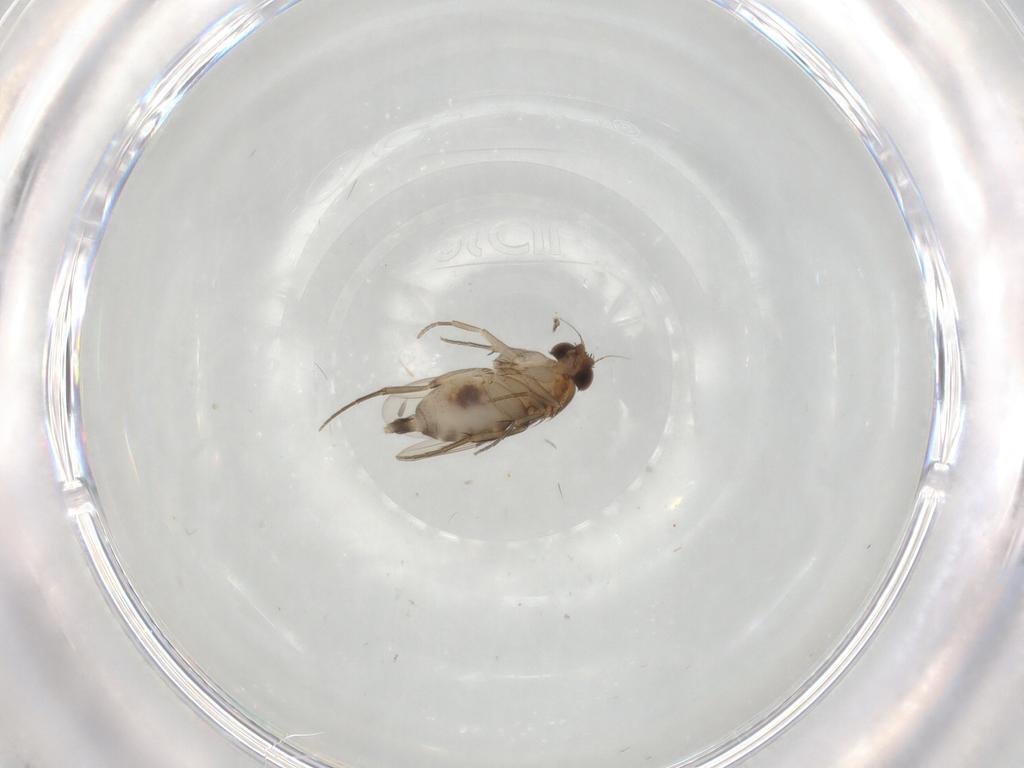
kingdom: Animalia
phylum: Arthropoda
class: Insecta
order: Diptera
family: Phoridae
